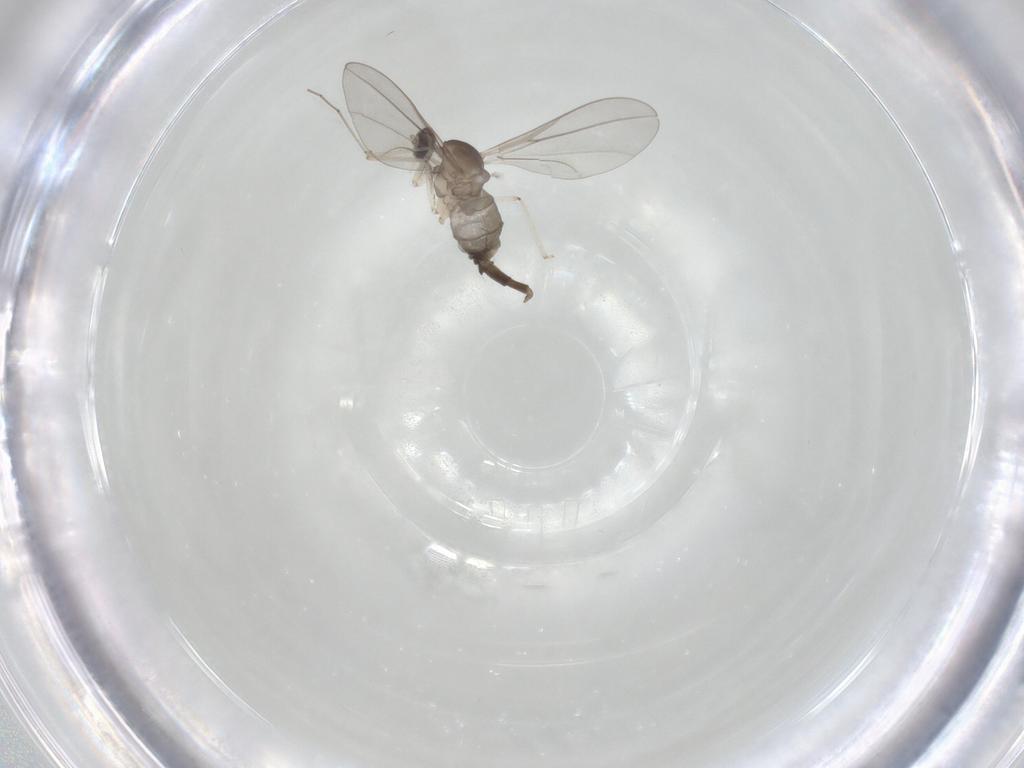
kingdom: Animalia
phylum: Arthropoda
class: Insecta
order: Diptera
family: Cecidomyiidae
